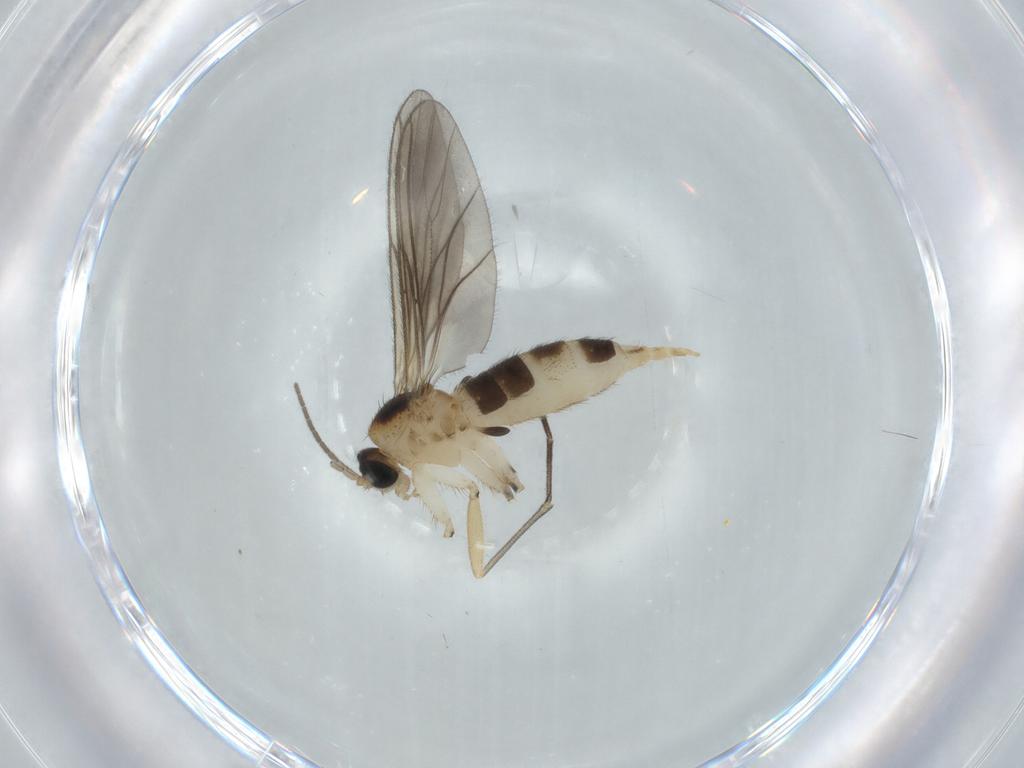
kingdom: Animalia
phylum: Arthropoda
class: Insecta
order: Diptera
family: Sciaridae
